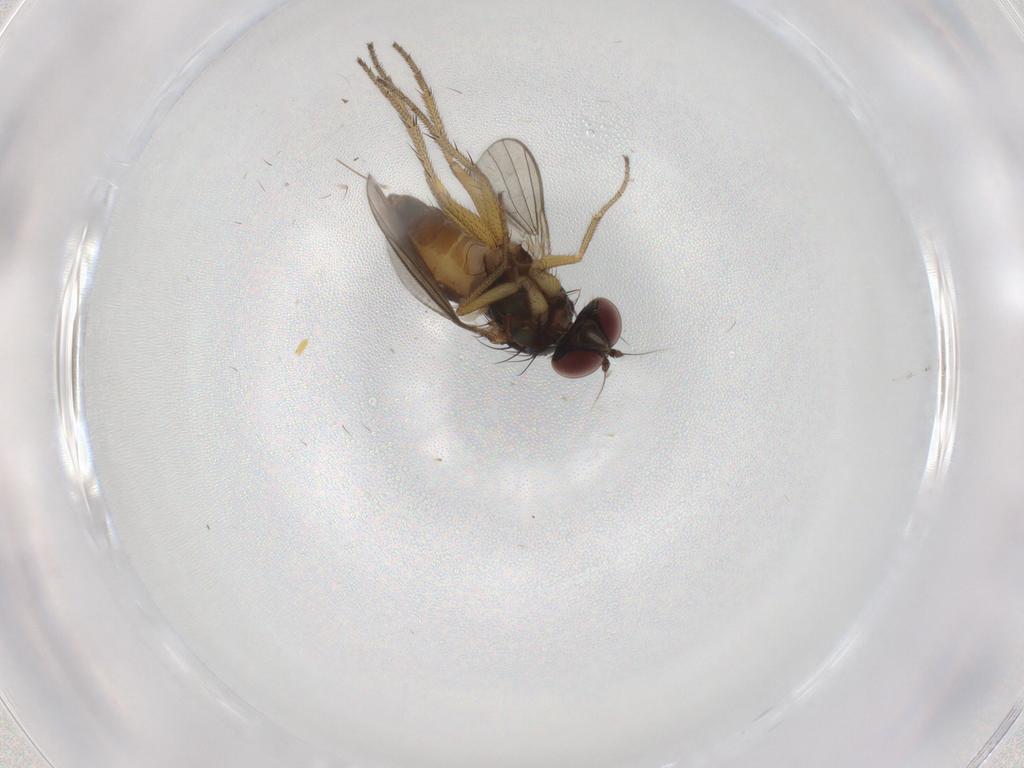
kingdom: Animalia
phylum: Arthropoda
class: Insecta
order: Diptera
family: Dolichopodidae
